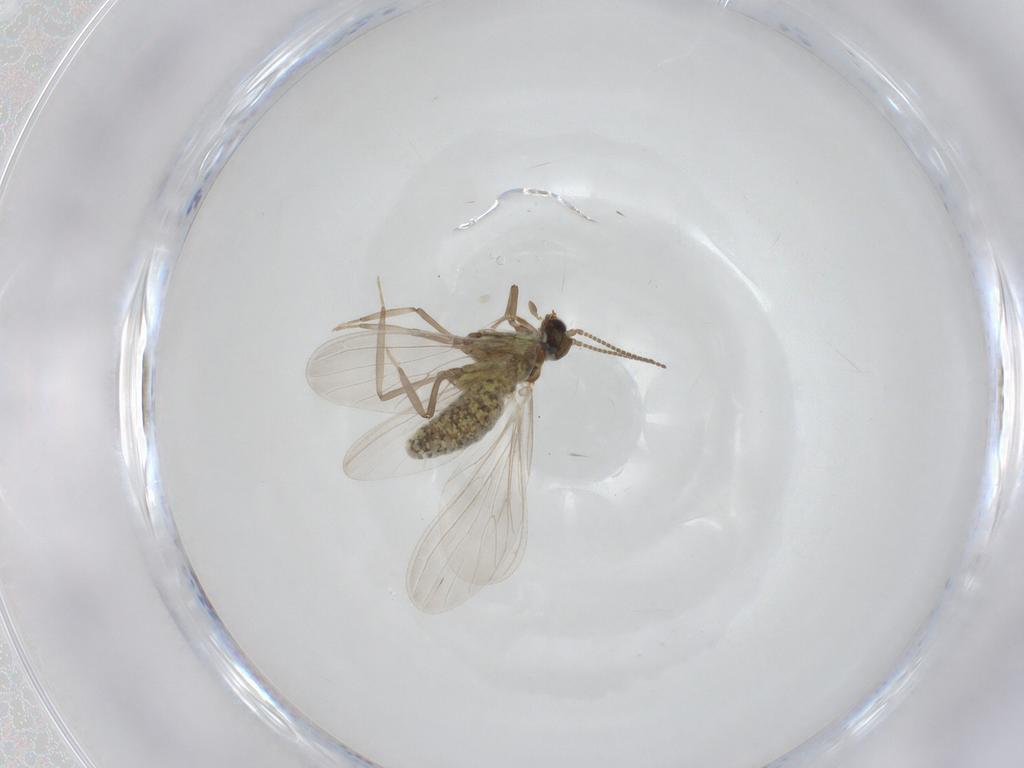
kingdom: Animalia
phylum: Arthropoda
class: Insecta
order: Neuroptera
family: Coniopterygidae
